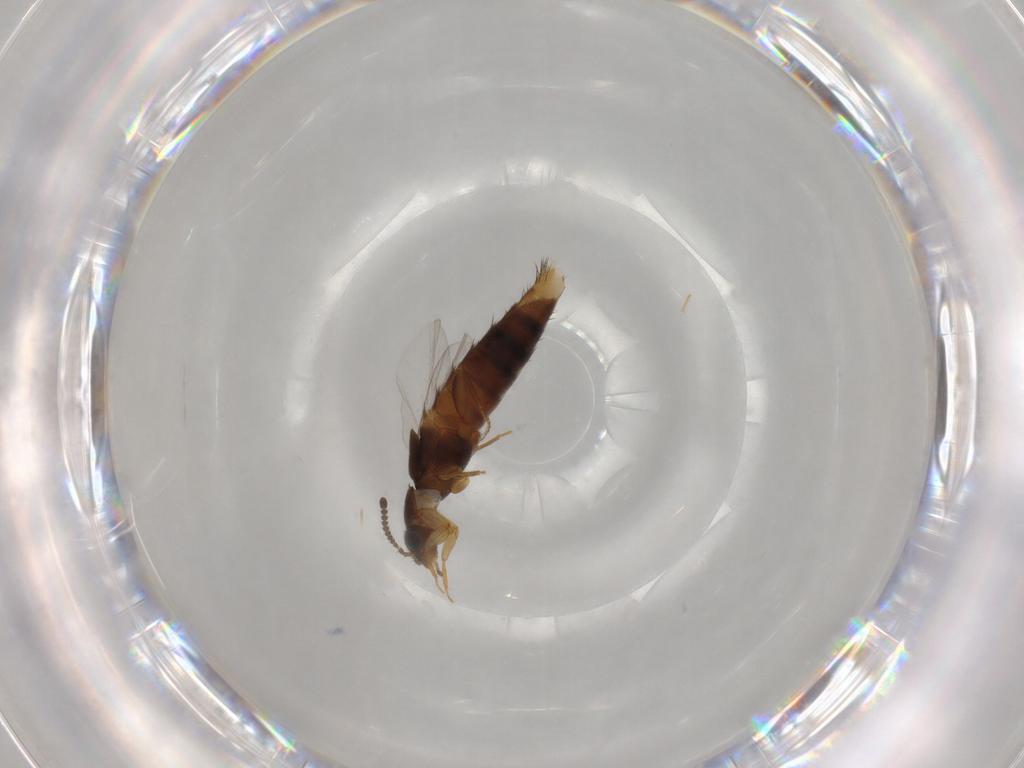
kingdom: Animalia
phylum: Arthropoda
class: Insecta
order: Coleoptera
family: Staphylinidae
